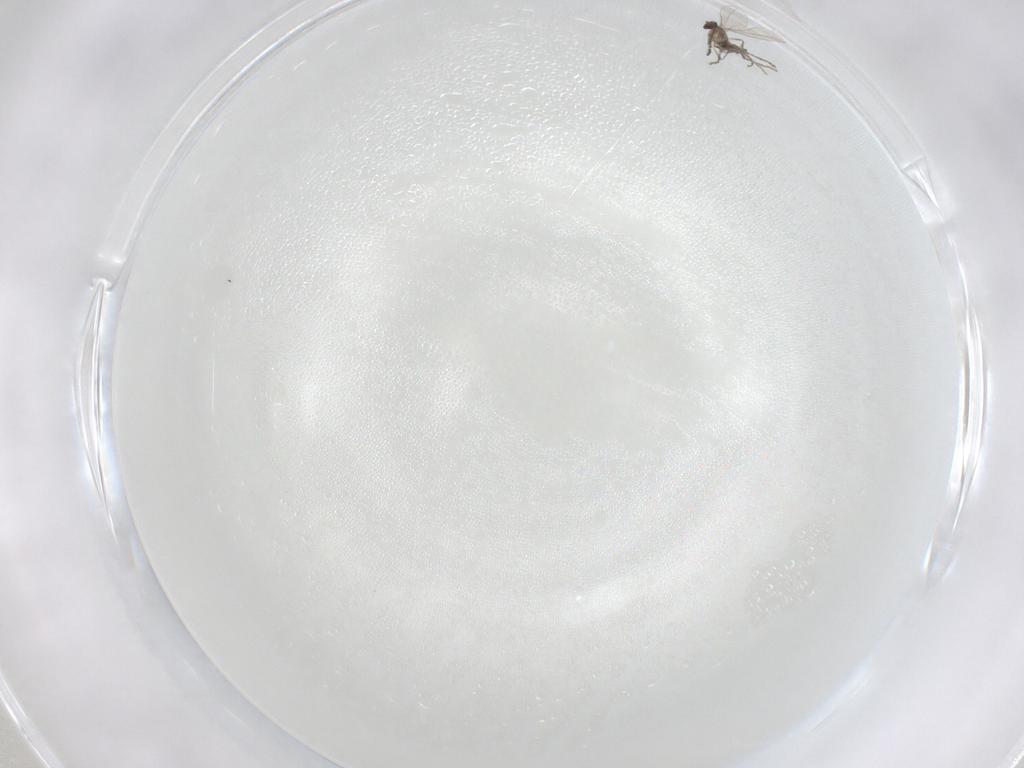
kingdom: Animalia
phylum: Arthropoda
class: Insecta
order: Diptera
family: Cecidomyiidae
